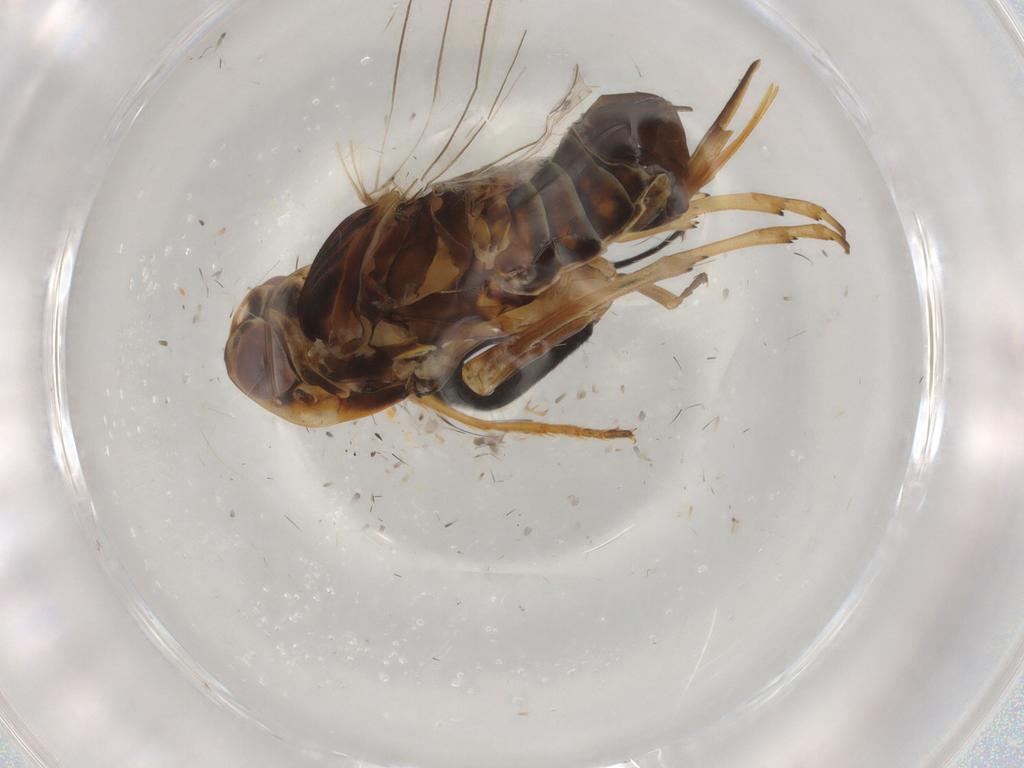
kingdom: Animalia
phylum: Arthropoda
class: Insecta
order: Hemiptera
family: Cixiidae
